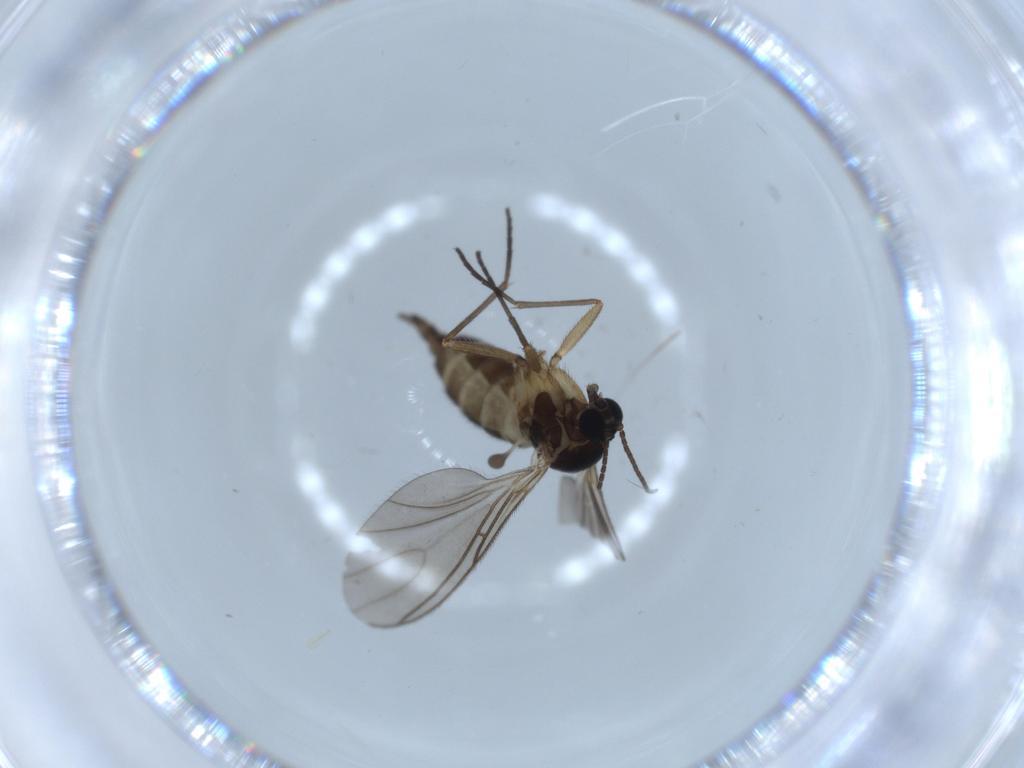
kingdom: Animalia
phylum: Arthropoda
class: Insecta
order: Diptera
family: Sciaridae
